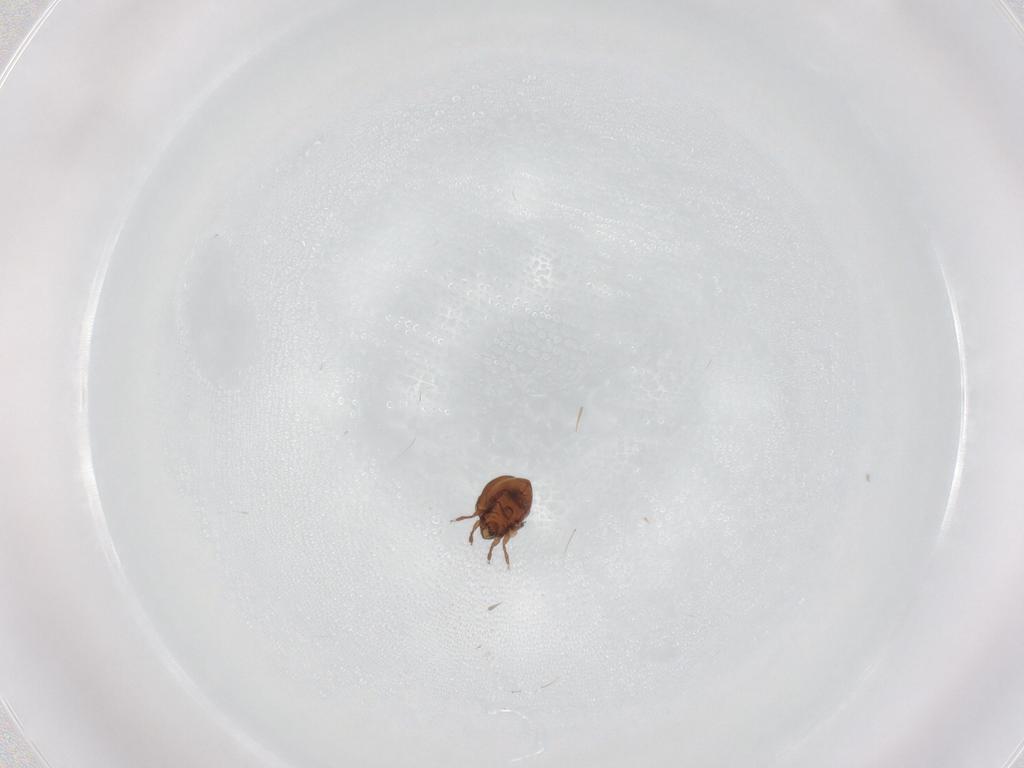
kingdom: Animalia
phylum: Arthropoda
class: Arachnida
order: Sarcoptiformes
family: Humerobatidae
